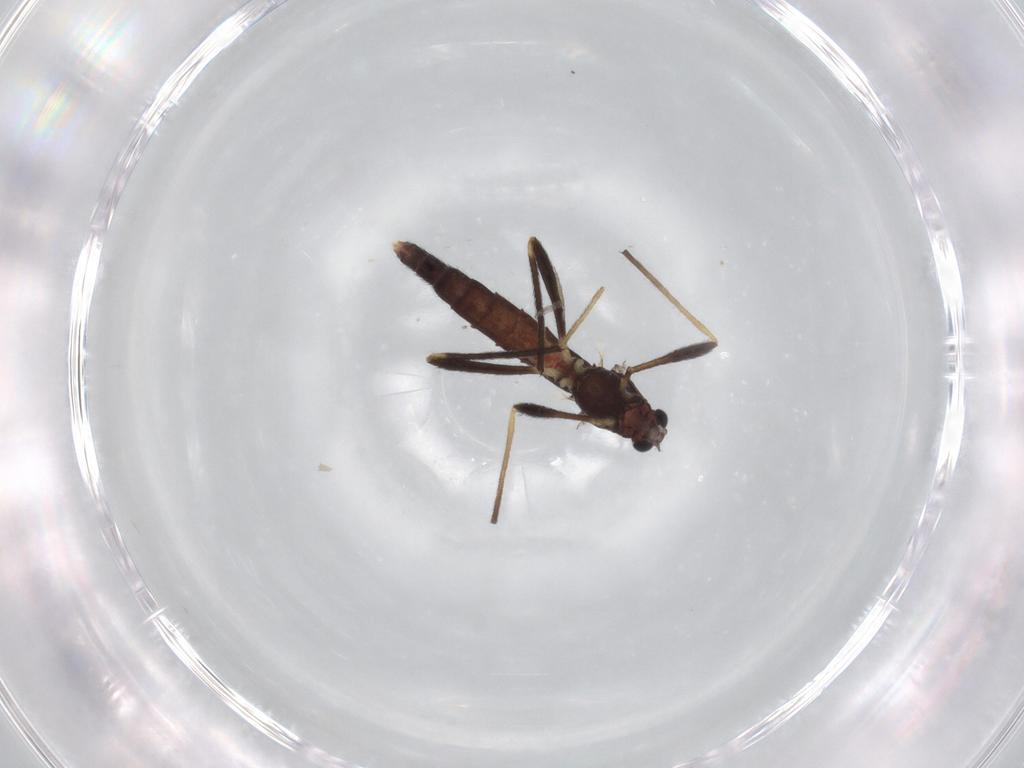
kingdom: Animalia
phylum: Arthropoda
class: Insecta
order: Diptera
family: Chironomidae
